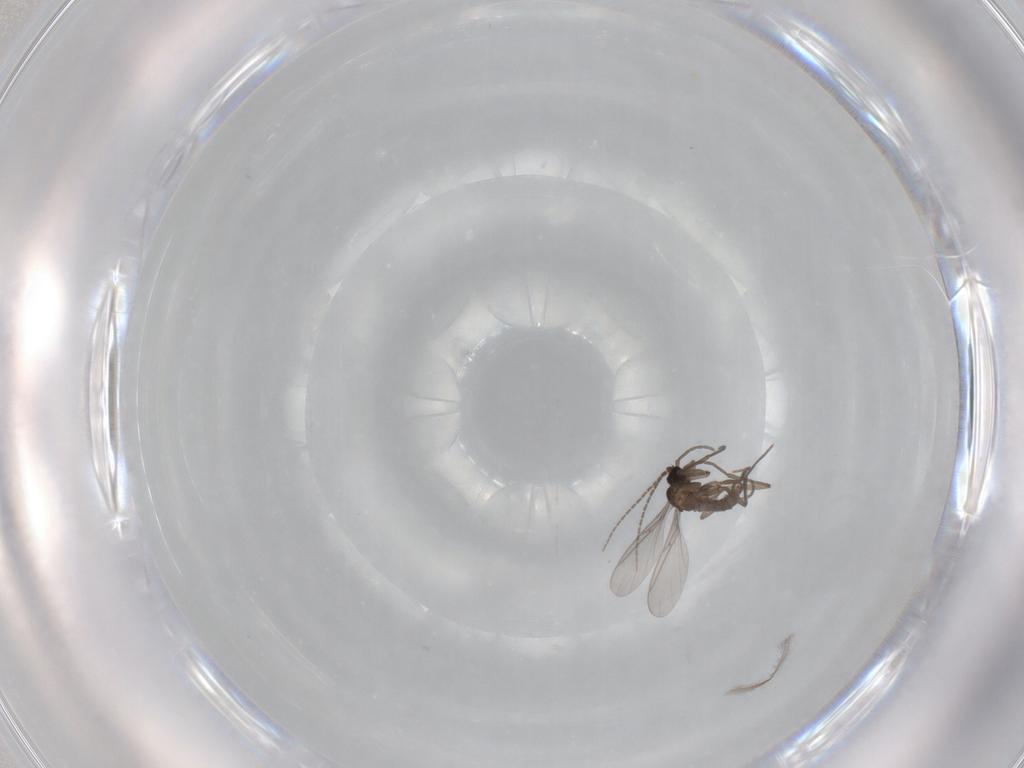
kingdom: Animalia
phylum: Arthropoda
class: Insecta
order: Diptera
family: Sciaridae
